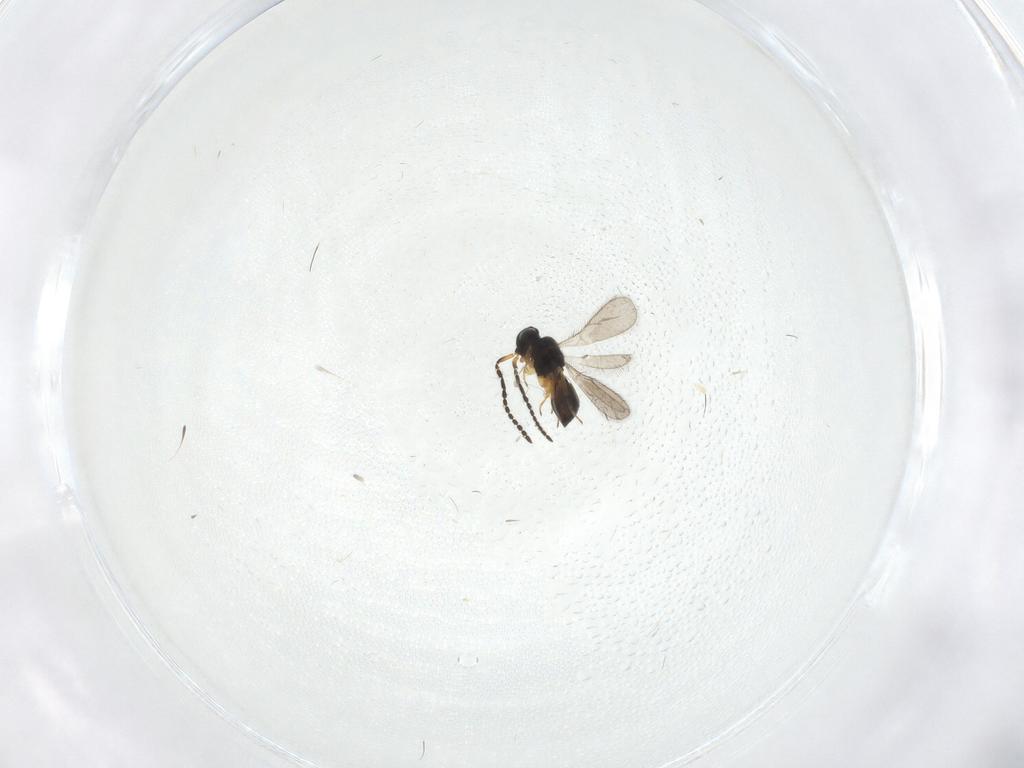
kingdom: Animalia
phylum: Arthropoda
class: Insecta
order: Hymenoptera
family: Scelionidae
